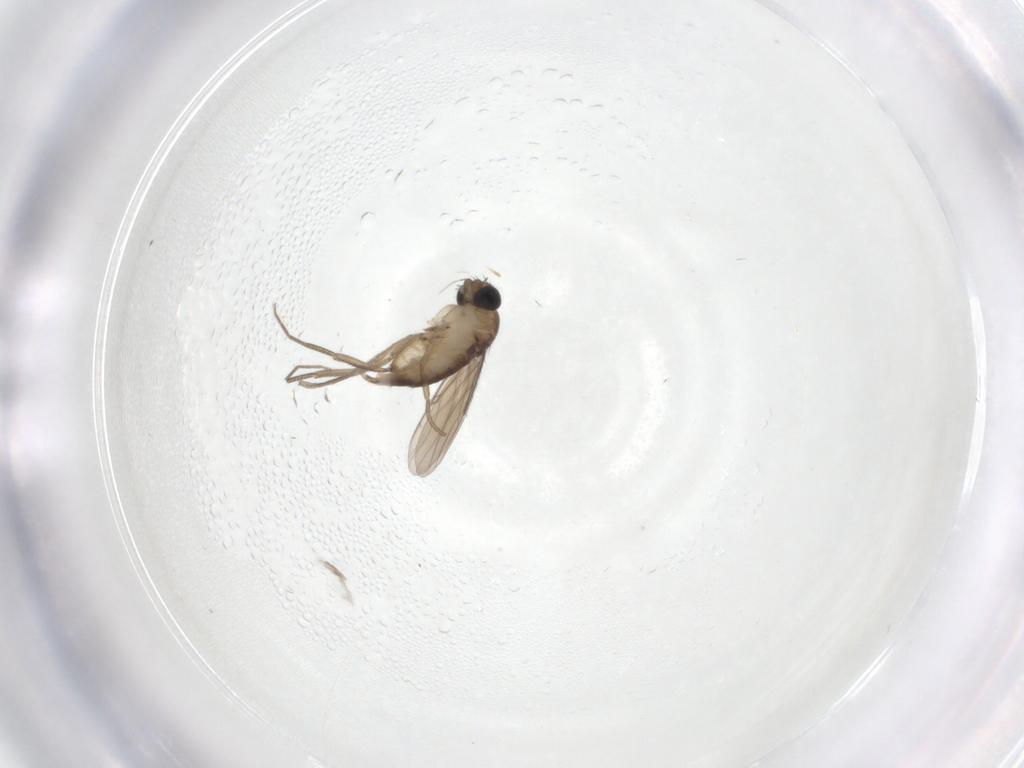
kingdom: Animalia
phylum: Arthropoda
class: Insecta
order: Diptera
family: Phoridae
